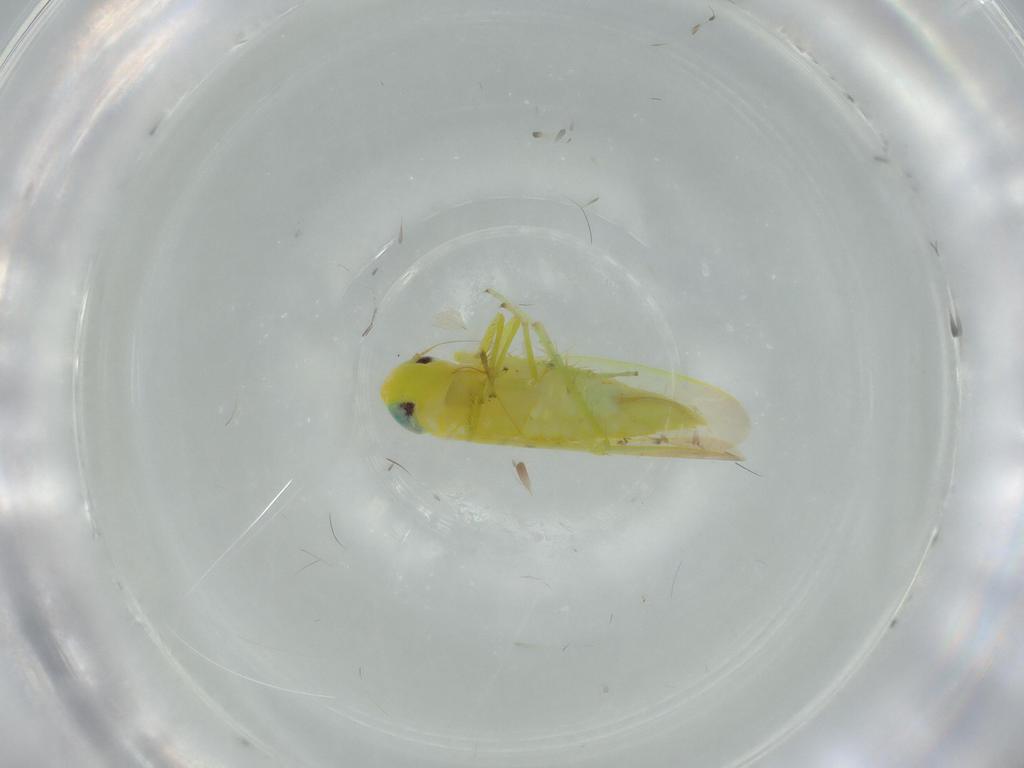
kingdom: Animalia
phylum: Arthropoda
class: Insecta
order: Hemiptera
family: Cicadellidae
